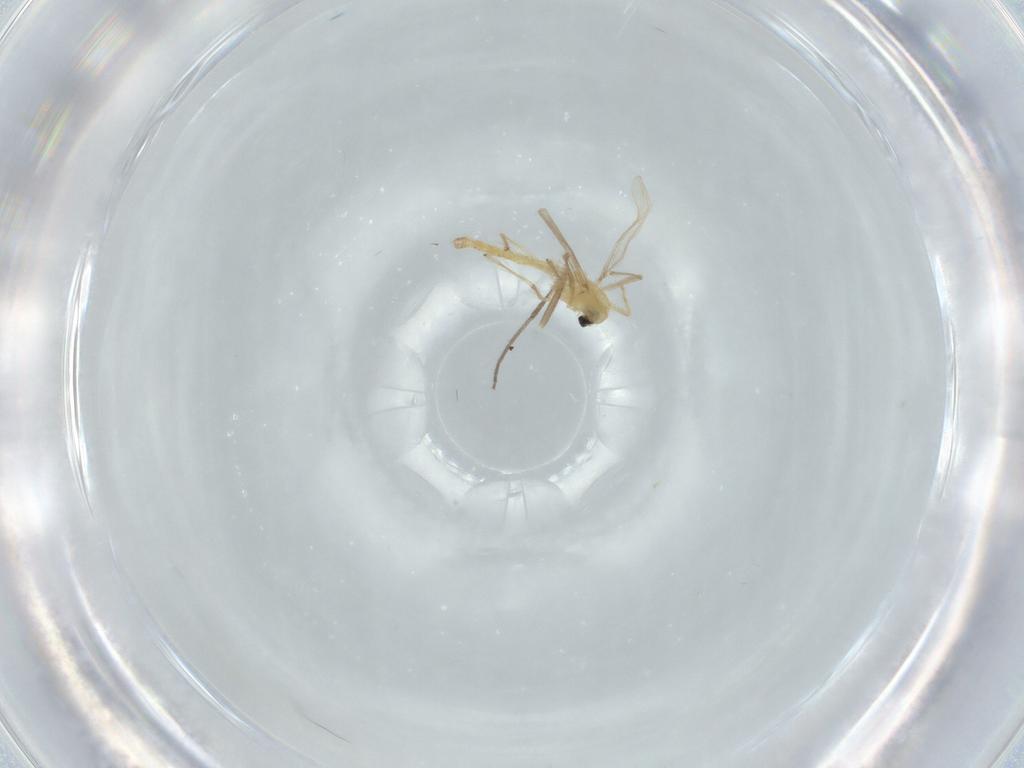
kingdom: Animalia
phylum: Arthropoda
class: Insecta
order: Diptera
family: Chironomidae
